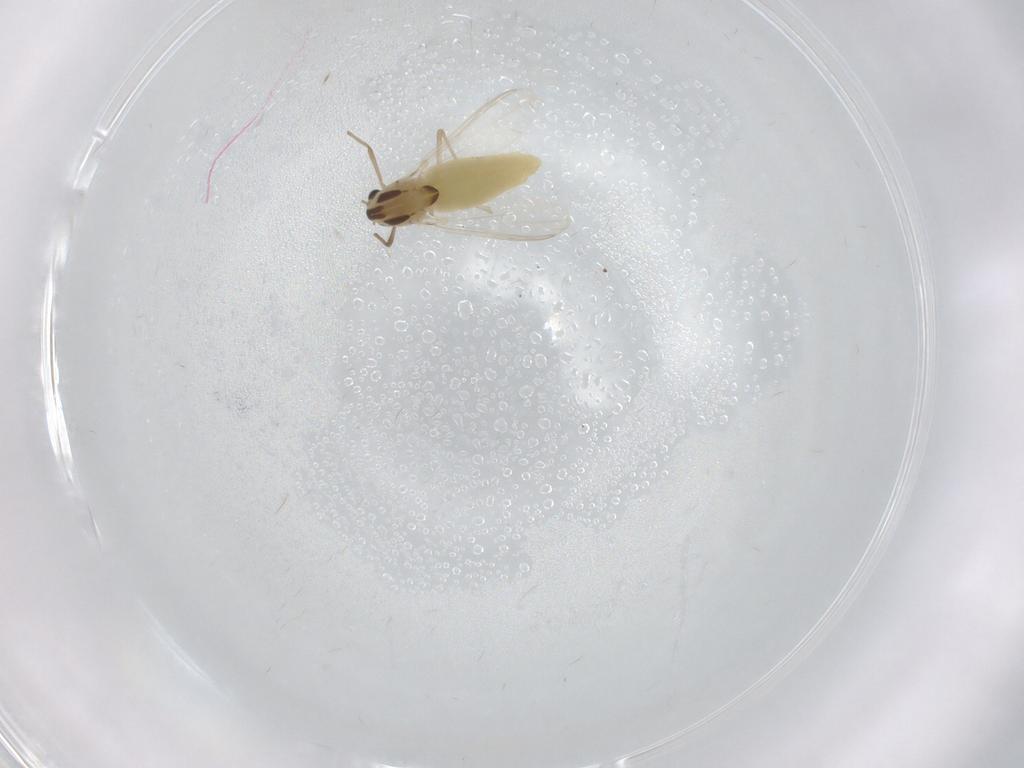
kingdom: Animalia
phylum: Arthropoda
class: Insecta
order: Diptera
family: Chironomidae
